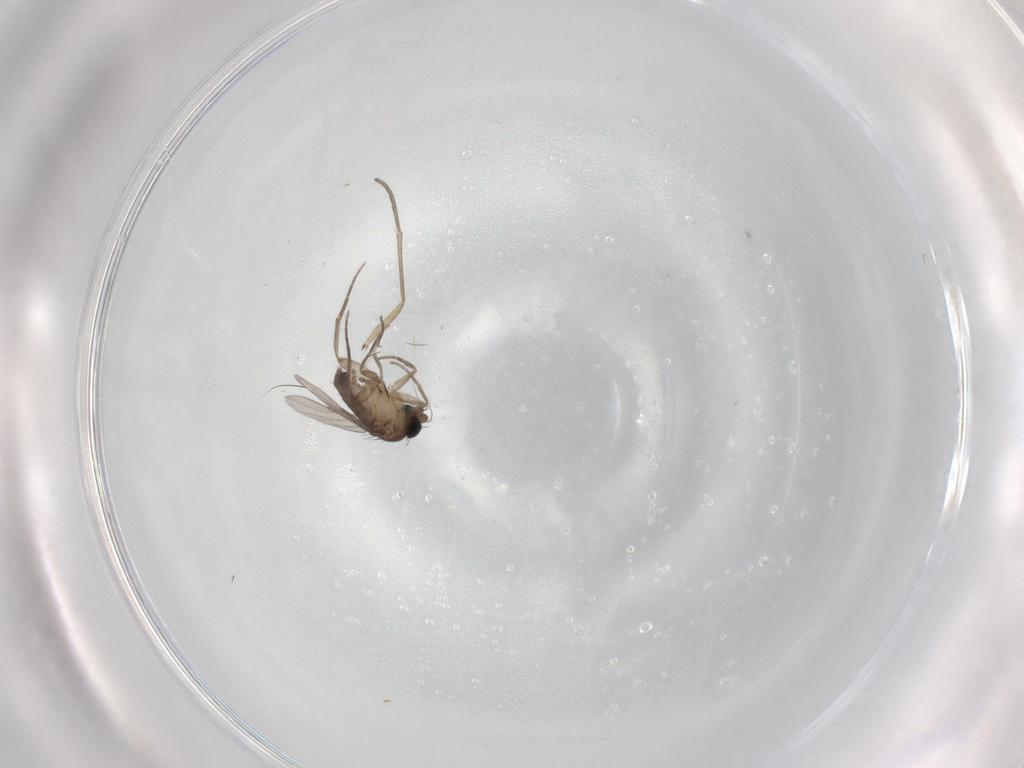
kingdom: Animalia
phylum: Arthropoda
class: Insecta
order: Diptera
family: Phoridae
